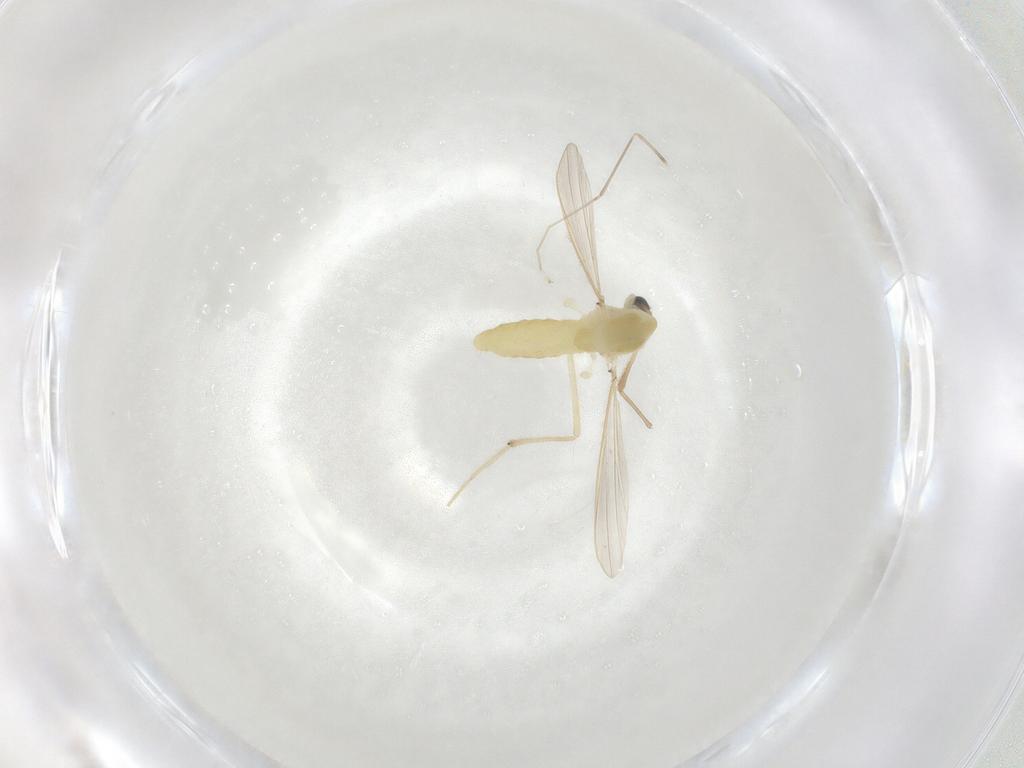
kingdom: Animalia
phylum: Arthropoda
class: Insecta
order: Diptera
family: Chironomidae
